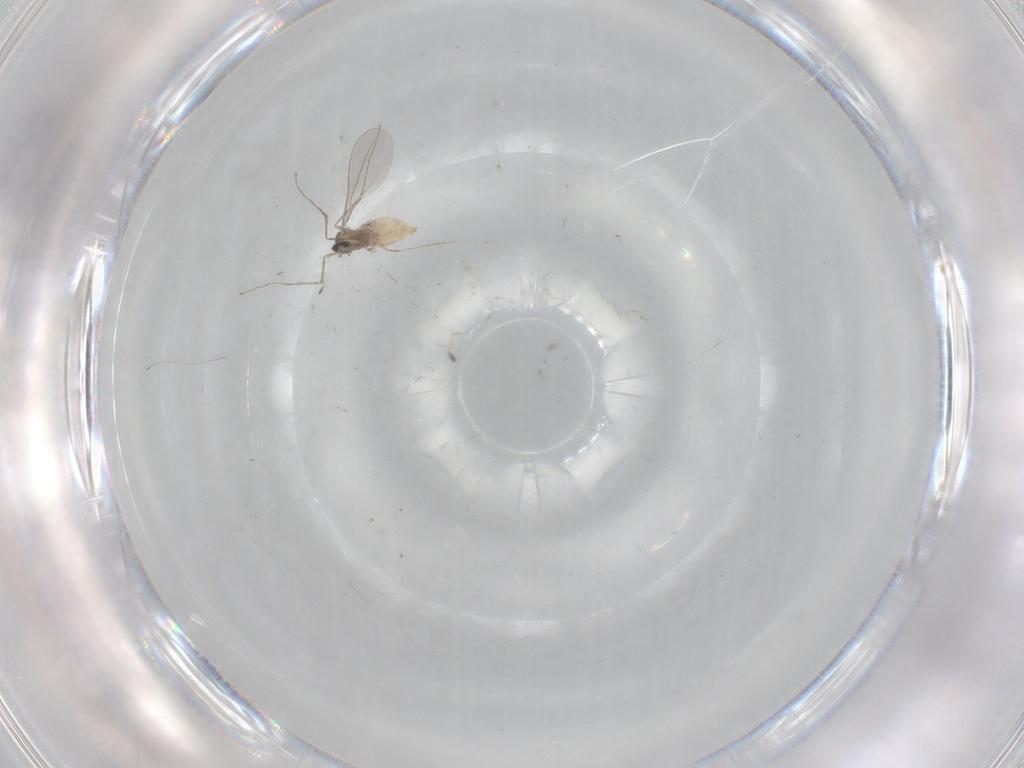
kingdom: Animalia
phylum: Arthropoda
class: Insecta
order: Diptera
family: Cecidomyiidae
